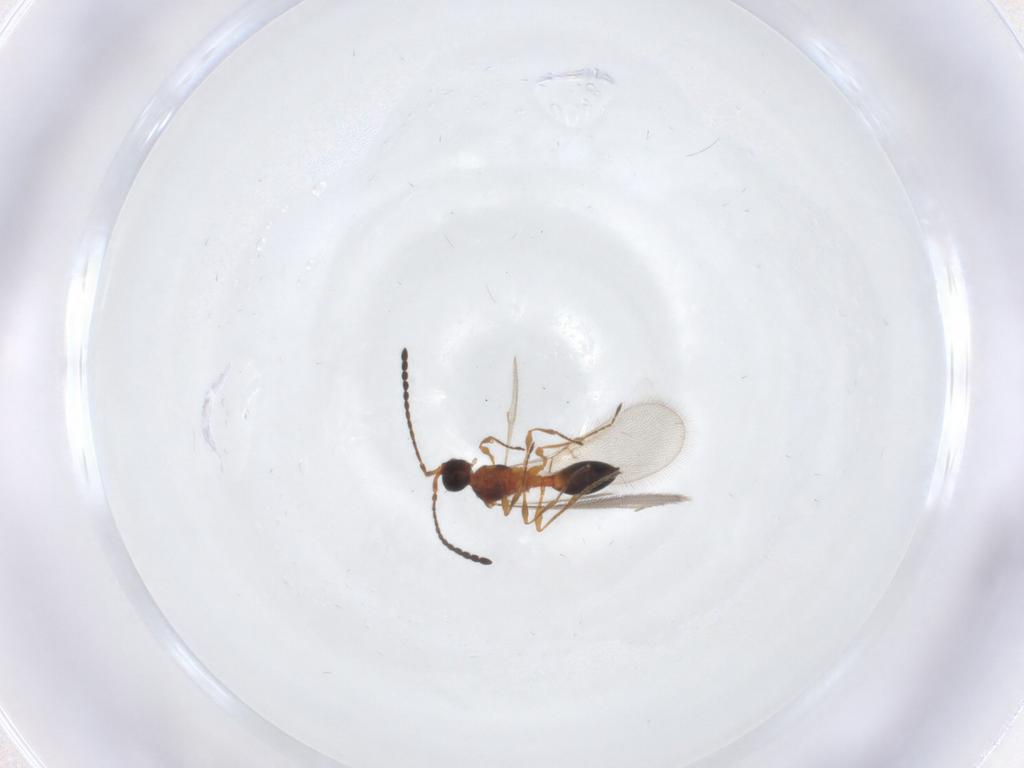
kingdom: Animalia
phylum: Arthropoda
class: Insecta
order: Hymenoptera
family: Diapriidae
